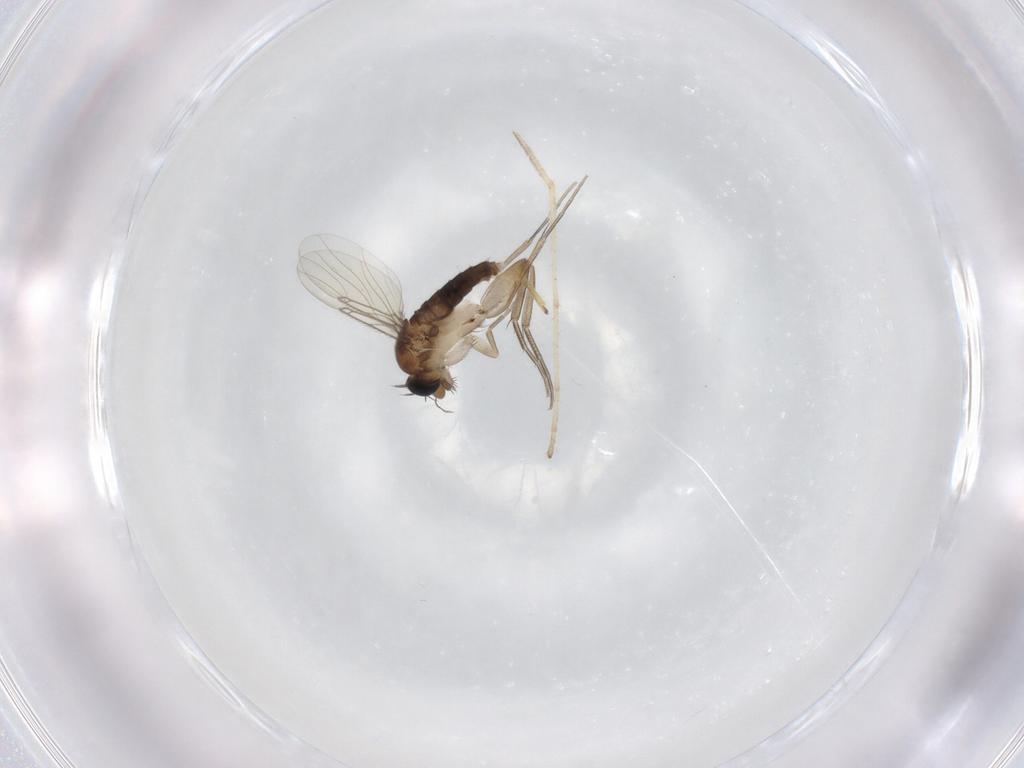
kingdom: Animalia
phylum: Arthropoda
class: Insecta
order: Diptera
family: Limoniidae
